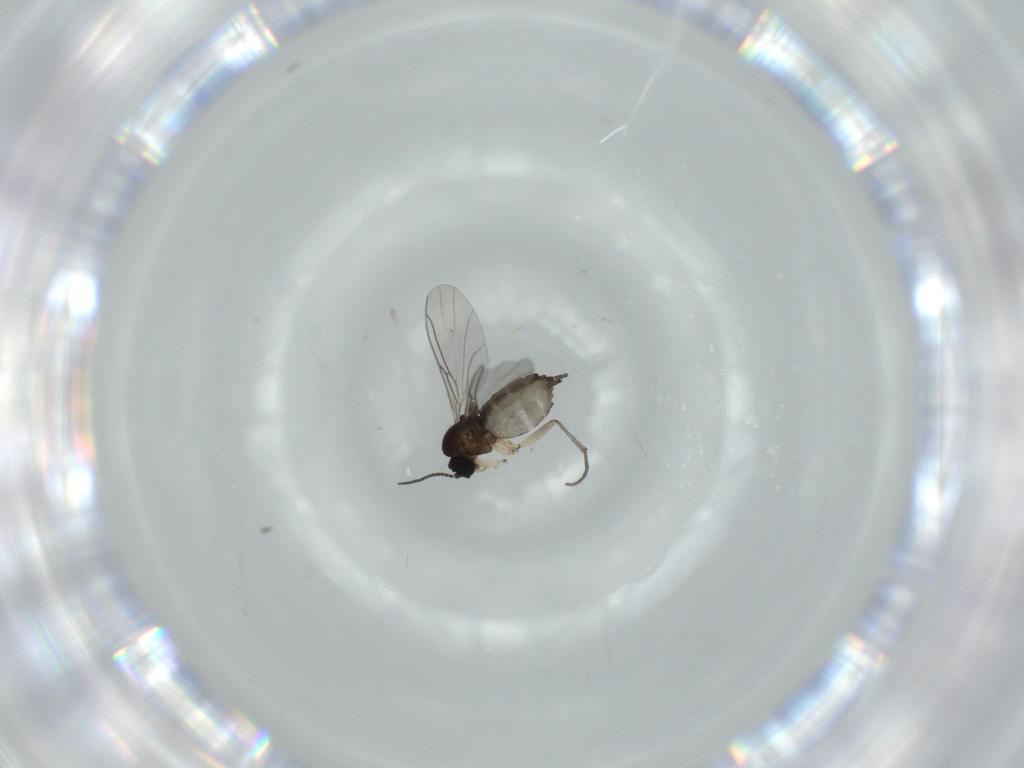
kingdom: Animalia
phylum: Arthropoda
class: Insecta
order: Diptera
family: Sciaridae
